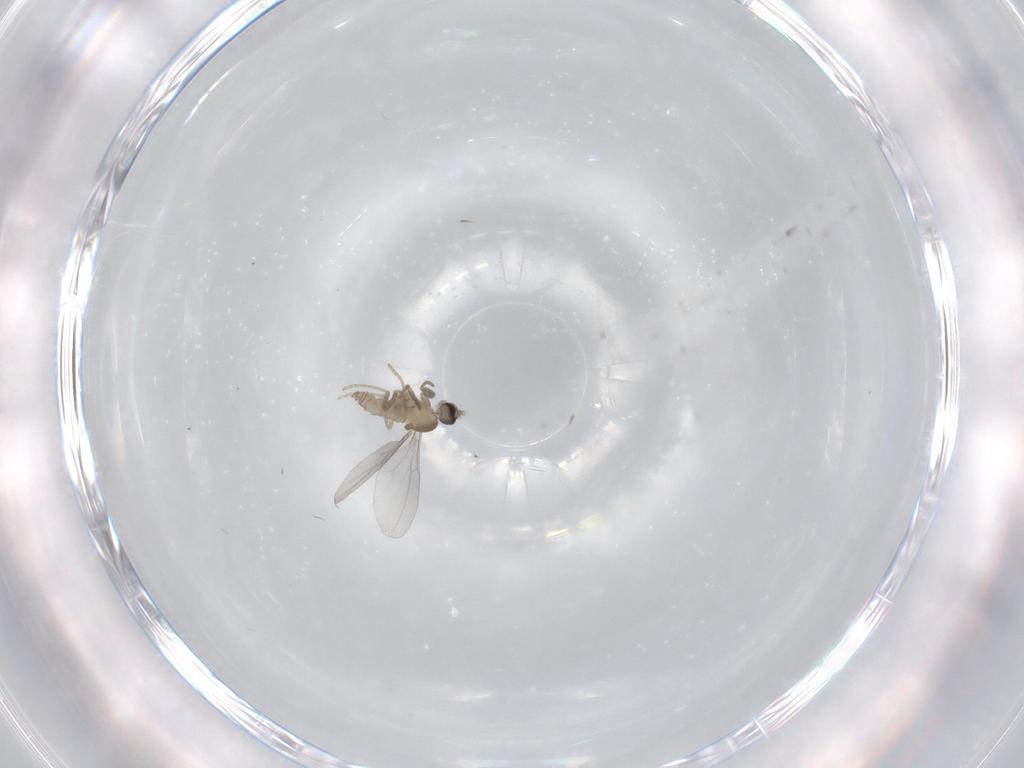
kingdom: Animalia
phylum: Arthropoda
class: Insecta
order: Diptera
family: Cecidomyiidae
